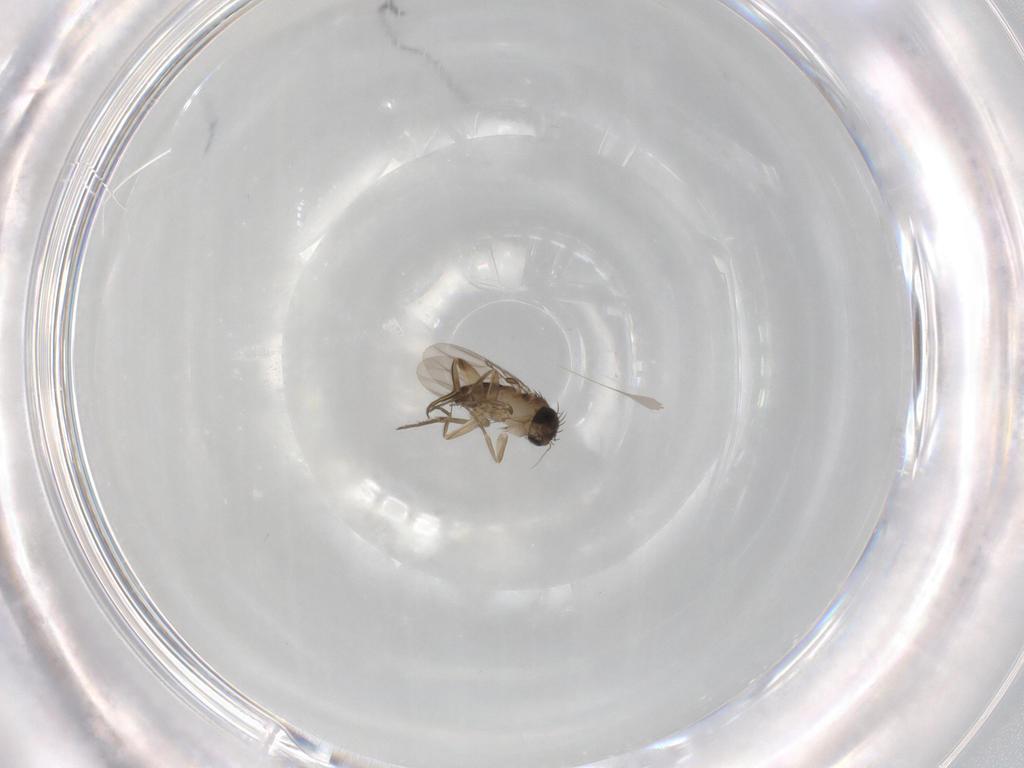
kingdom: Animalia
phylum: Arthropoda
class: Insecta
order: Diptera
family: Phoridae
